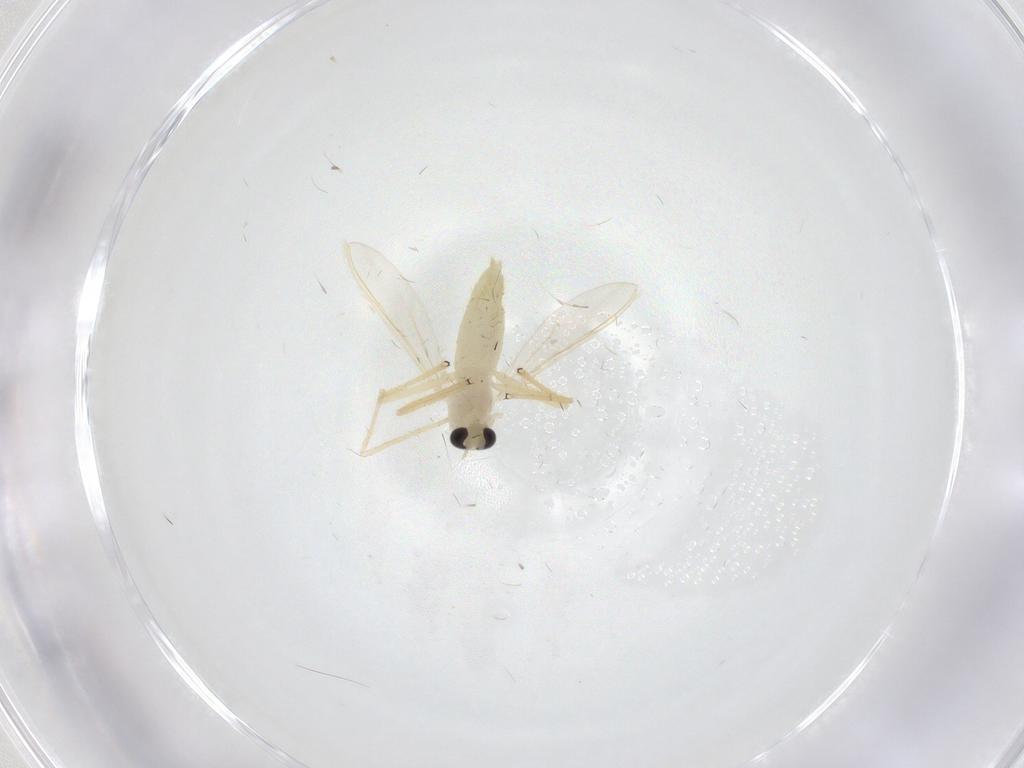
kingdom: Animalia
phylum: Arthropoda
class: Insecta
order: Diptera
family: Chironomidae
